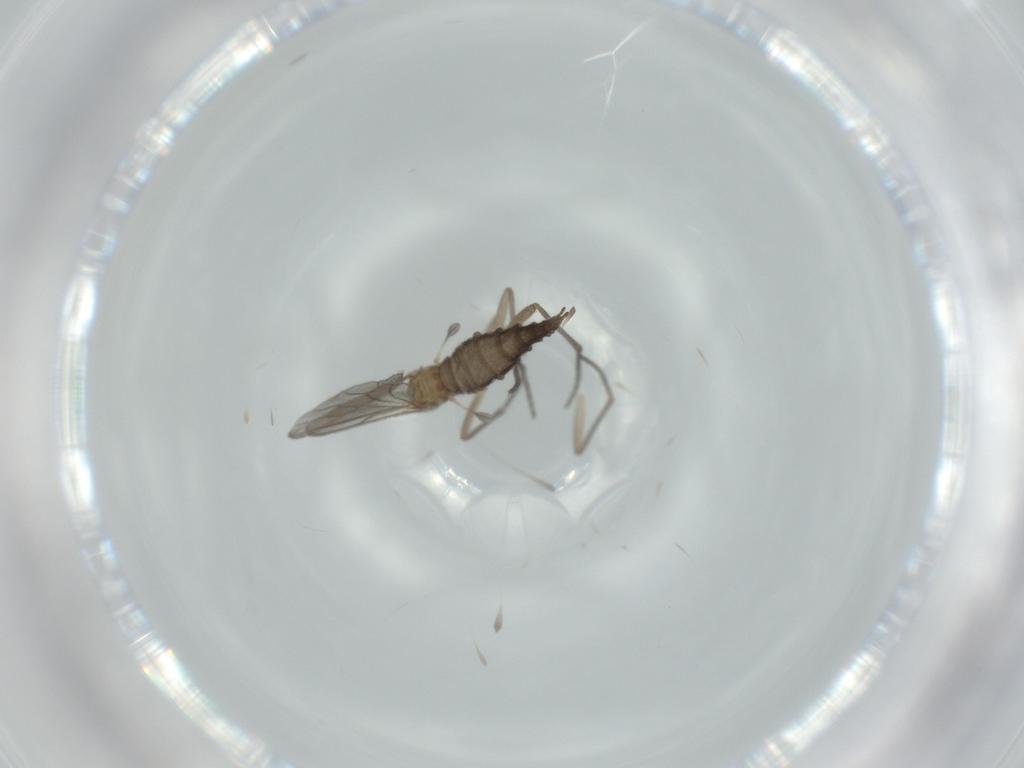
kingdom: Animalia
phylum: Arthropoda
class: Insecta
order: Diptera
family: Sciaridae
